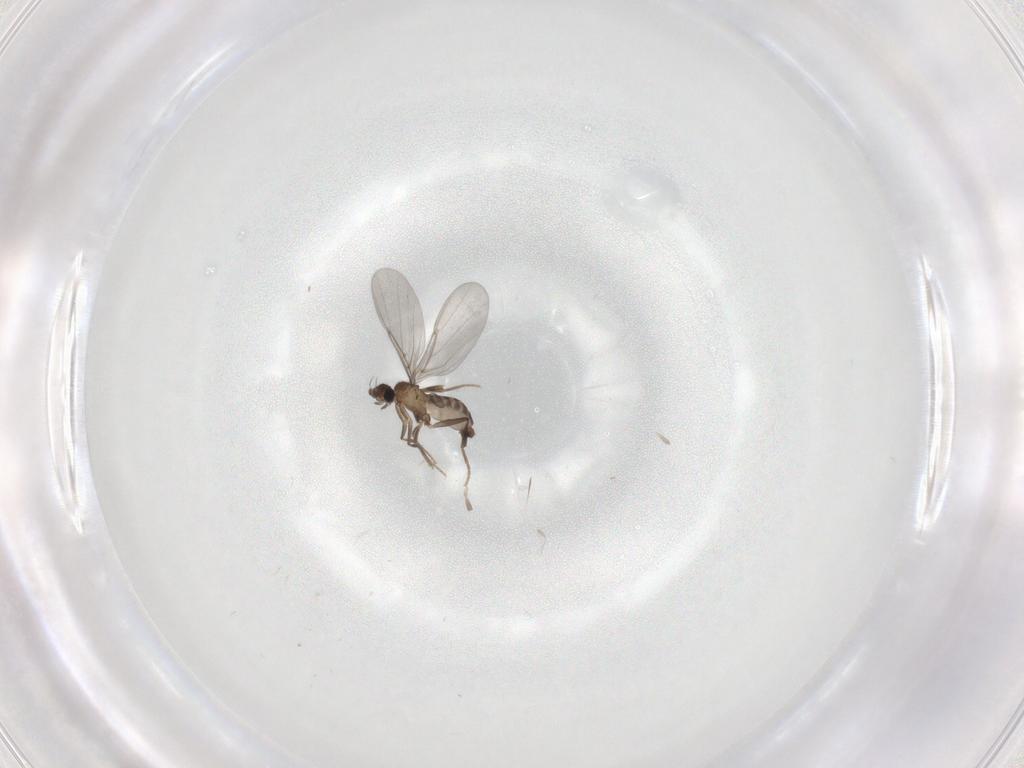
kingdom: Animalia
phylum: Arthropoda
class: Insecta
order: Diptera
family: Phoridae
